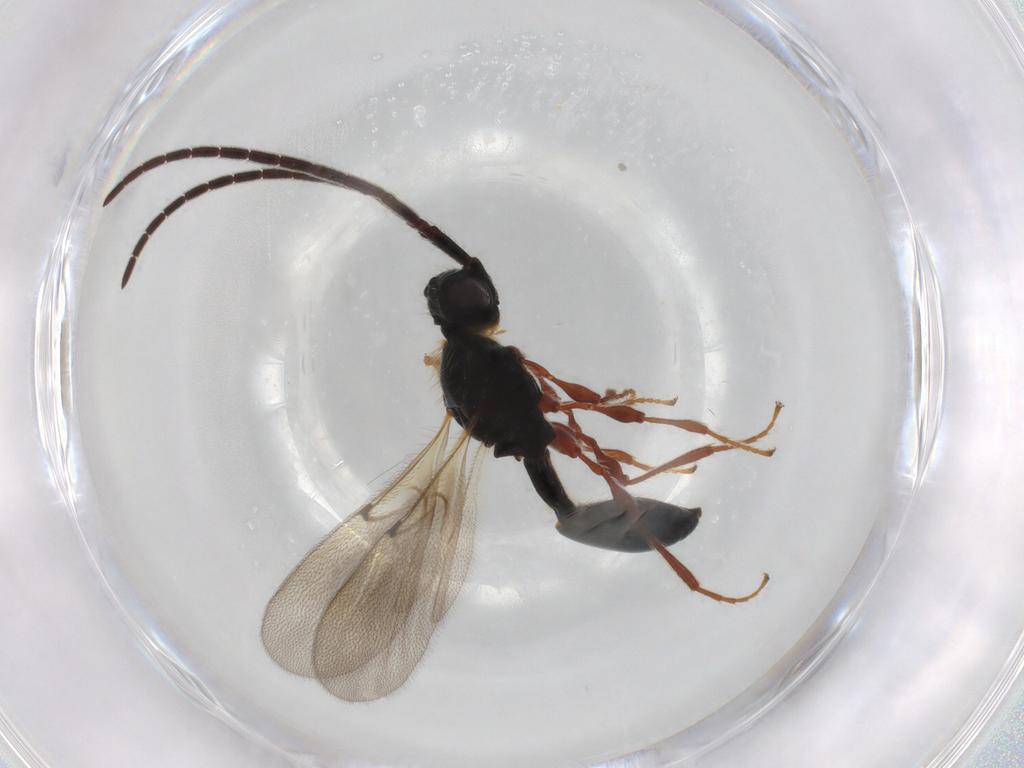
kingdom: Animalia
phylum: Arthropoda
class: Insecta
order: Hymenoptera
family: Diapriidae
